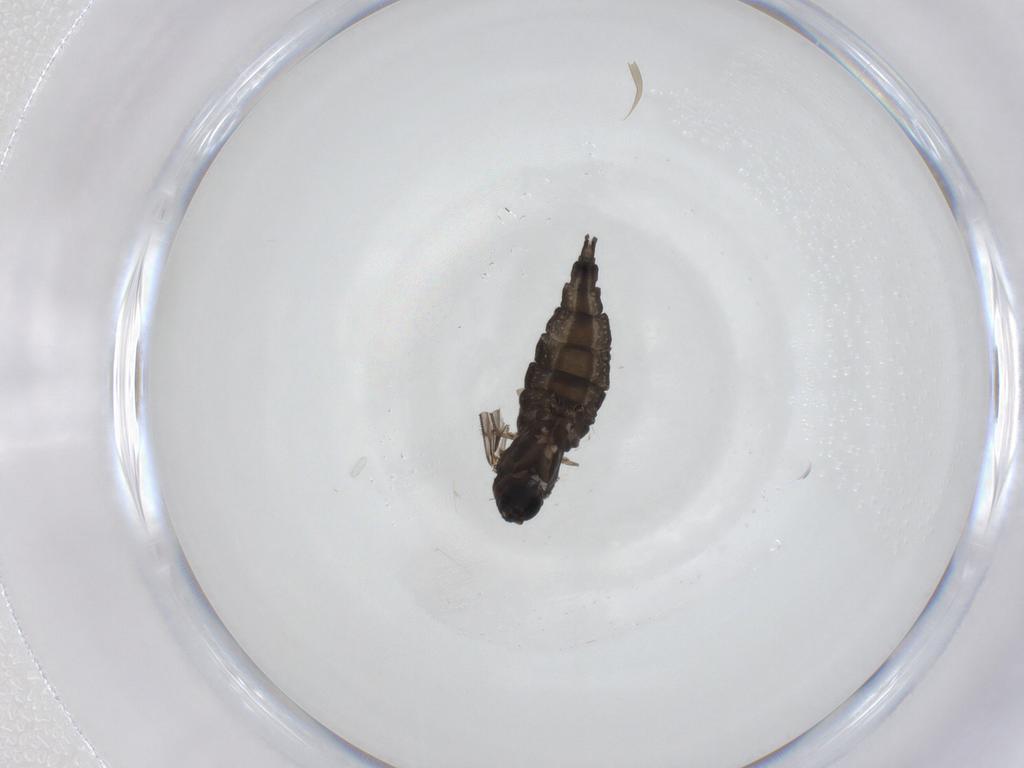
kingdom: Animalia
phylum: Arthropoda
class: Insecta
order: Diptera
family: Sciaridae
